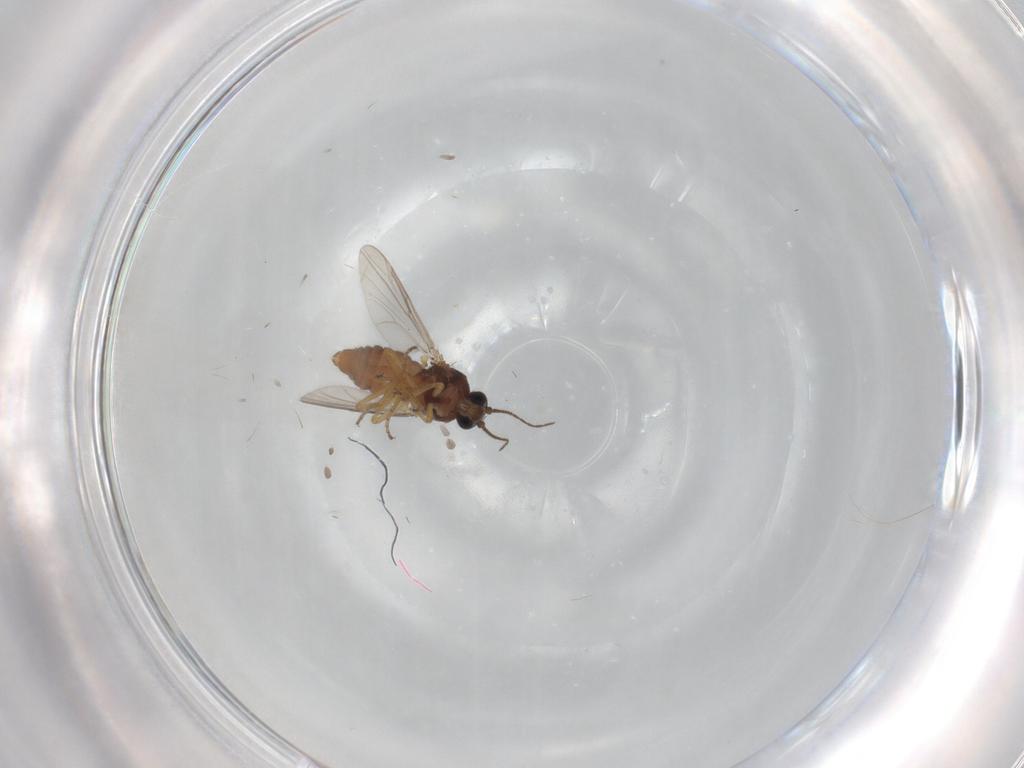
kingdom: Animalia
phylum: Arthropoda
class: Insecta
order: Diptera
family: Ceratopogonidae
